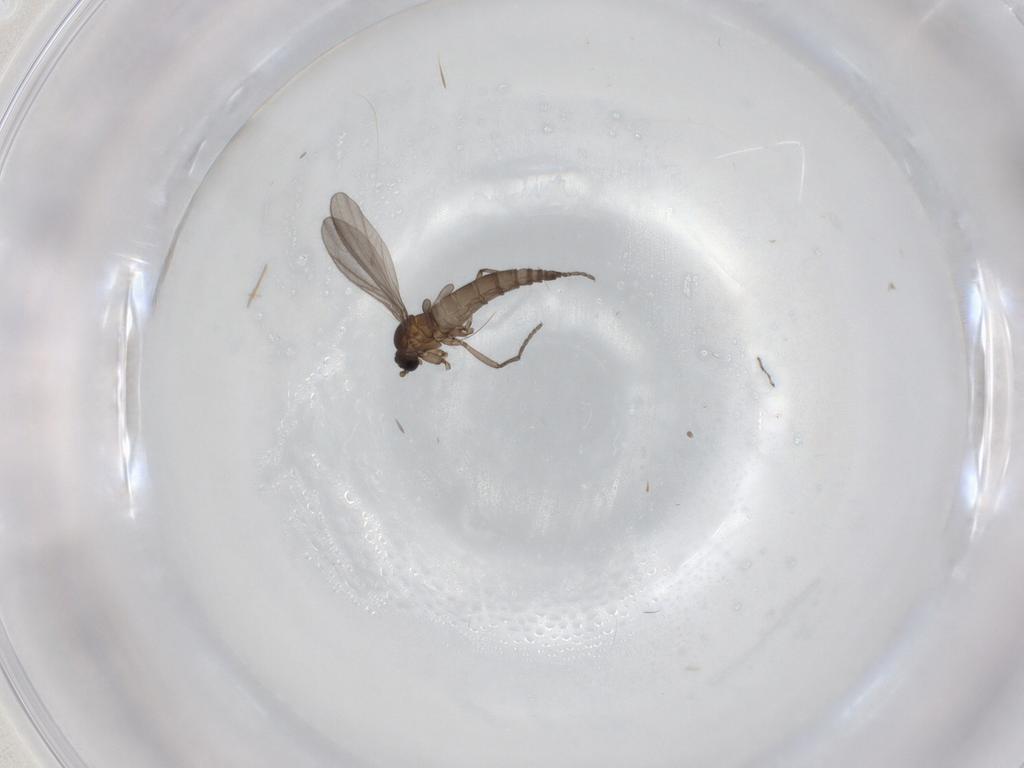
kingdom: Animalia
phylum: Arthropoda
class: Insecta
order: Diptera
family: Sciaridae
